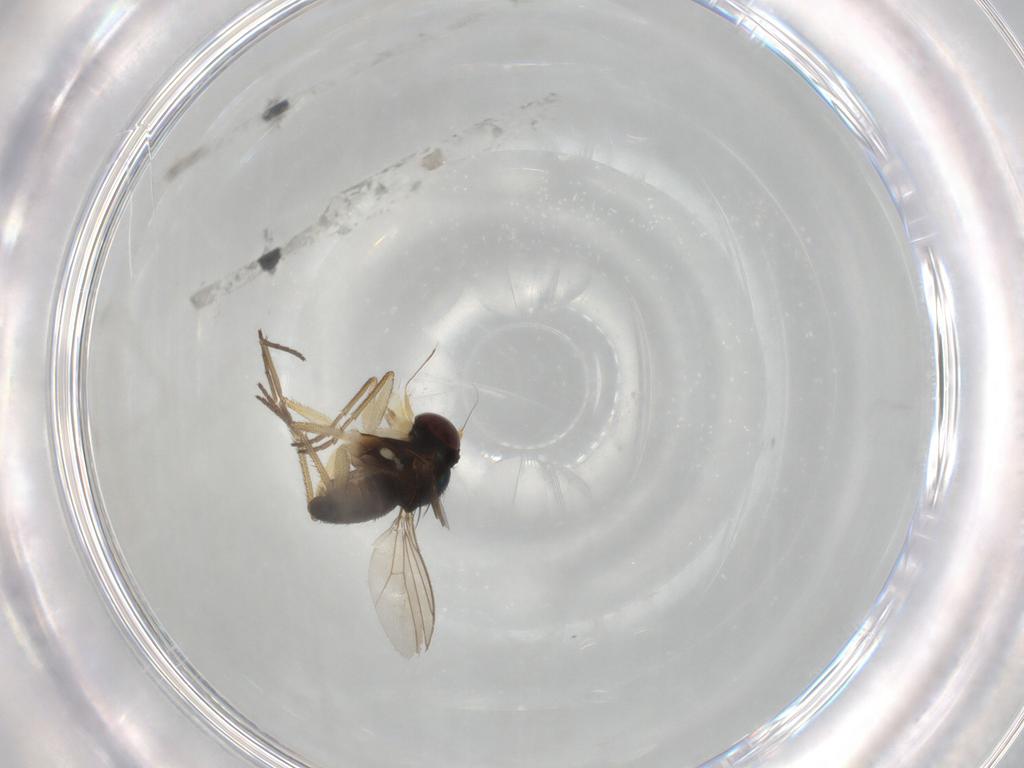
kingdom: Animalia
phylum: Arthropoda
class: Insecta
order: Diptera
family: Dolichopodidae
